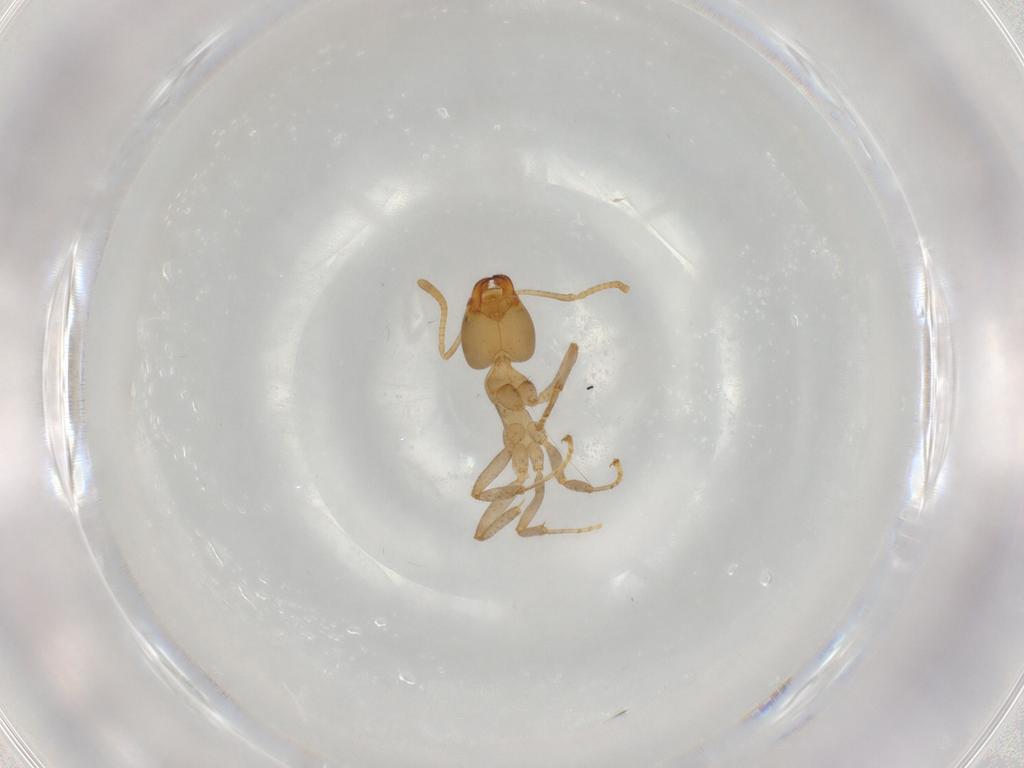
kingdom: Animalia
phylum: Arthropoda
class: Insecta
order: Hymenoptera
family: Formicidae
